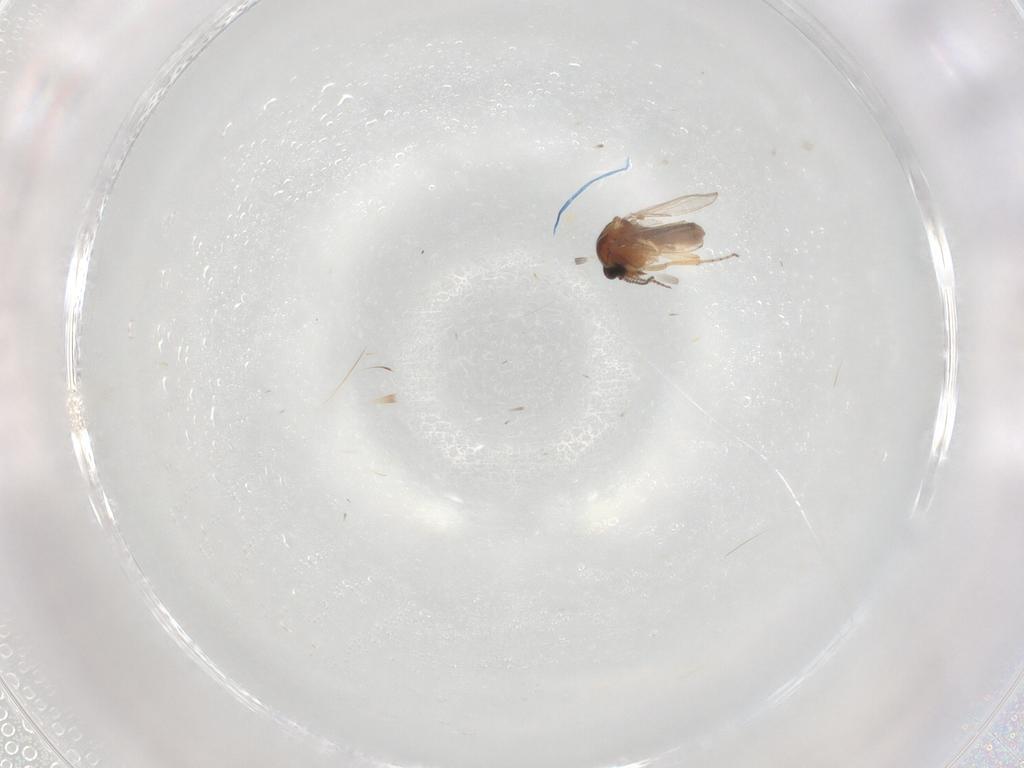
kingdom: Animalia
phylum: Arthropoda
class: Insecta
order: Diptera
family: Ceratopogonidae
